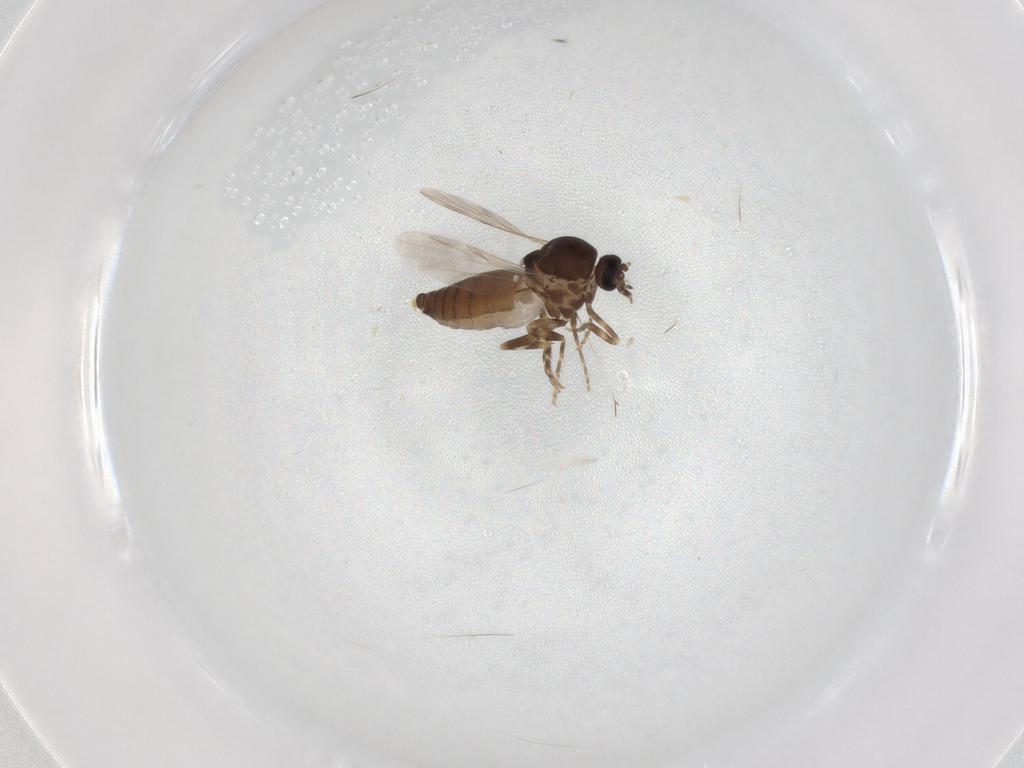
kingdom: Animalia
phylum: Arthropoda
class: Insecta
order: Diptera
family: Ceratopogonidae
